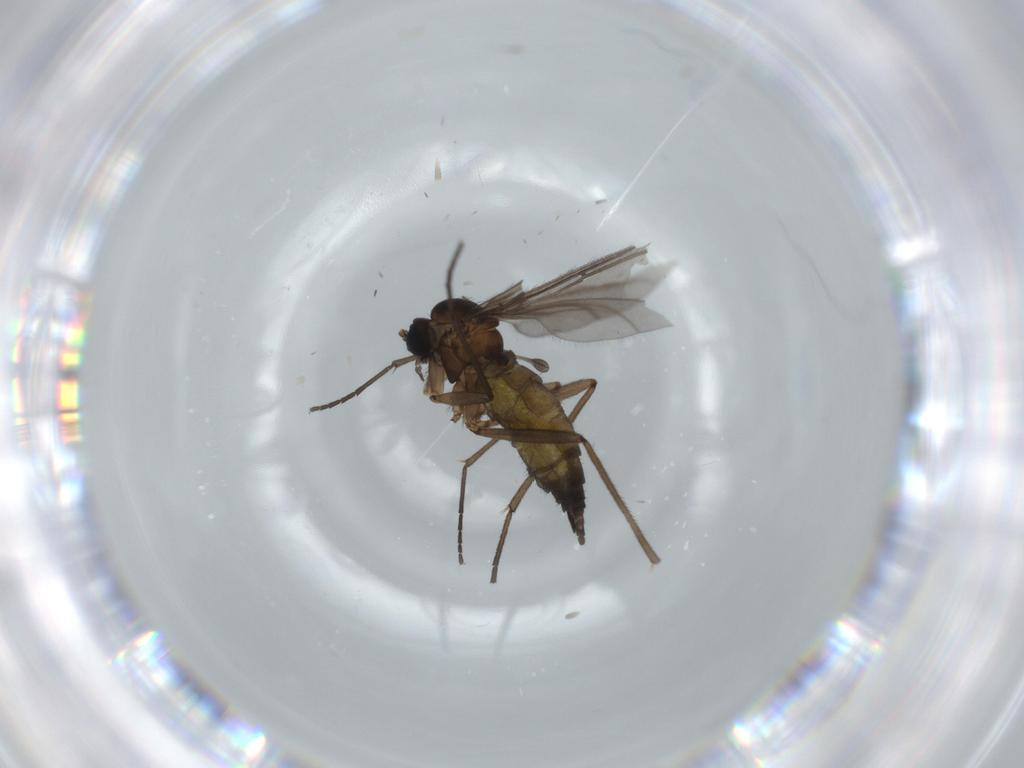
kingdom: Animalia
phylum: Arthropoda
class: Insecta
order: Diptera
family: Sciaridae
